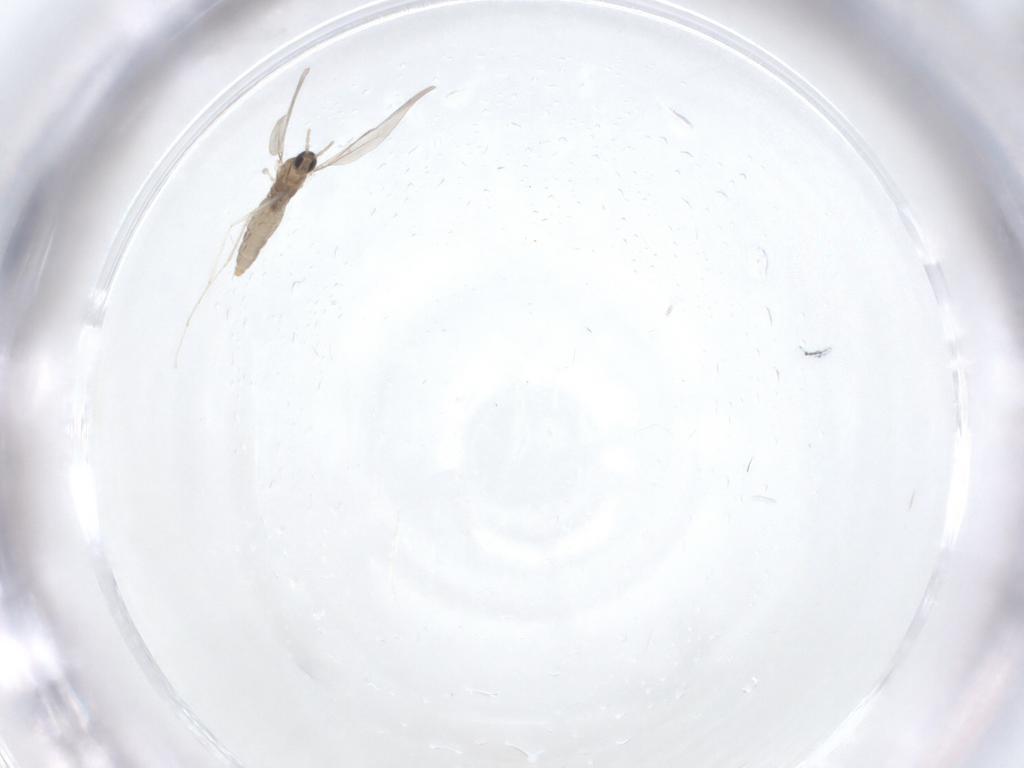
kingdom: Animalia
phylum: Arthropoda
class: Insecta
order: Diptera
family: Cecidomyiidae
